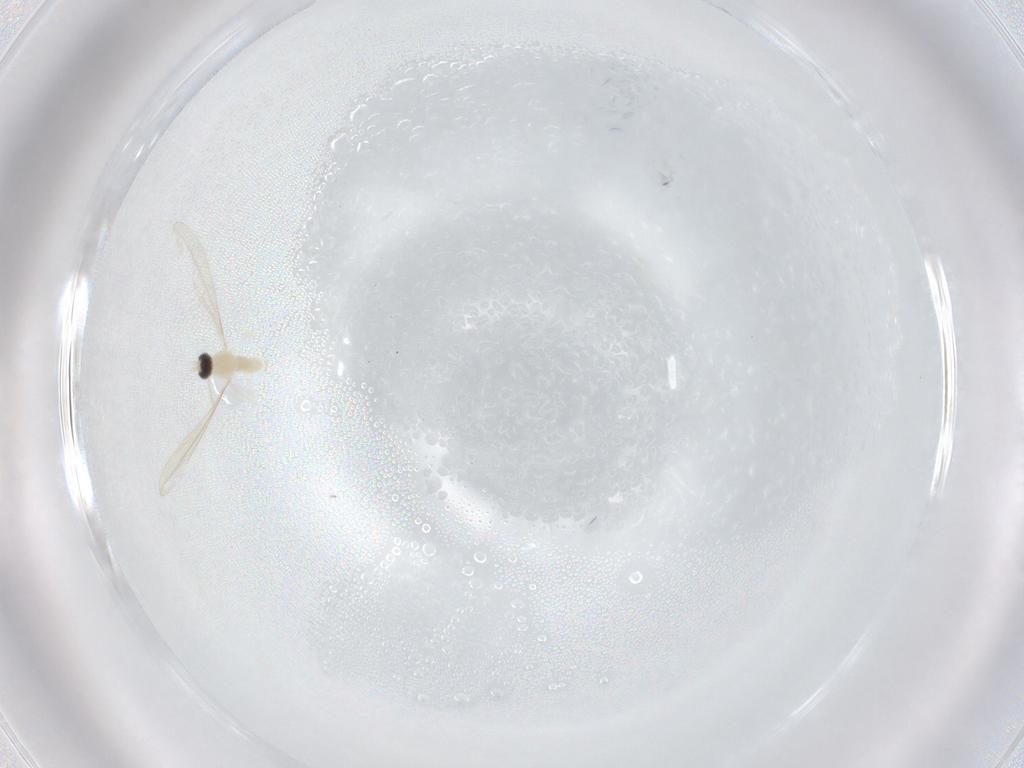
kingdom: Animalia
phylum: Arthropoda
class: Insecta
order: Diptera
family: Cecidomyiidae
